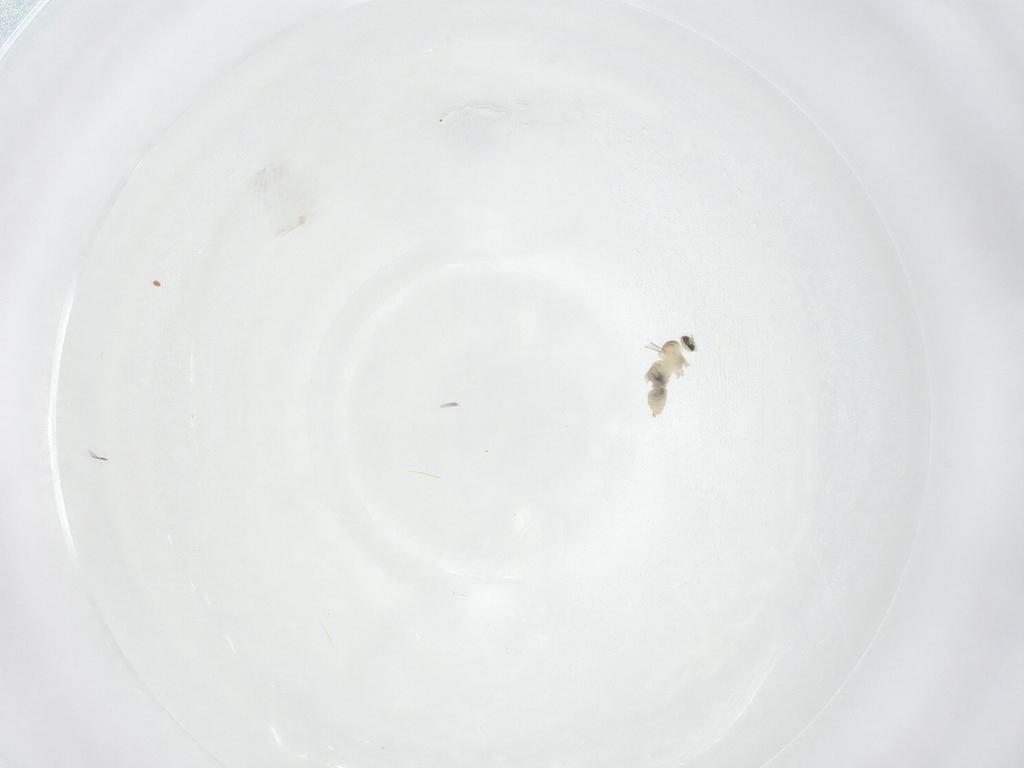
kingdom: Animalia
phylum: Arthropoda
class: Insecta
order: Diptera
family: Cecidomyiidae
